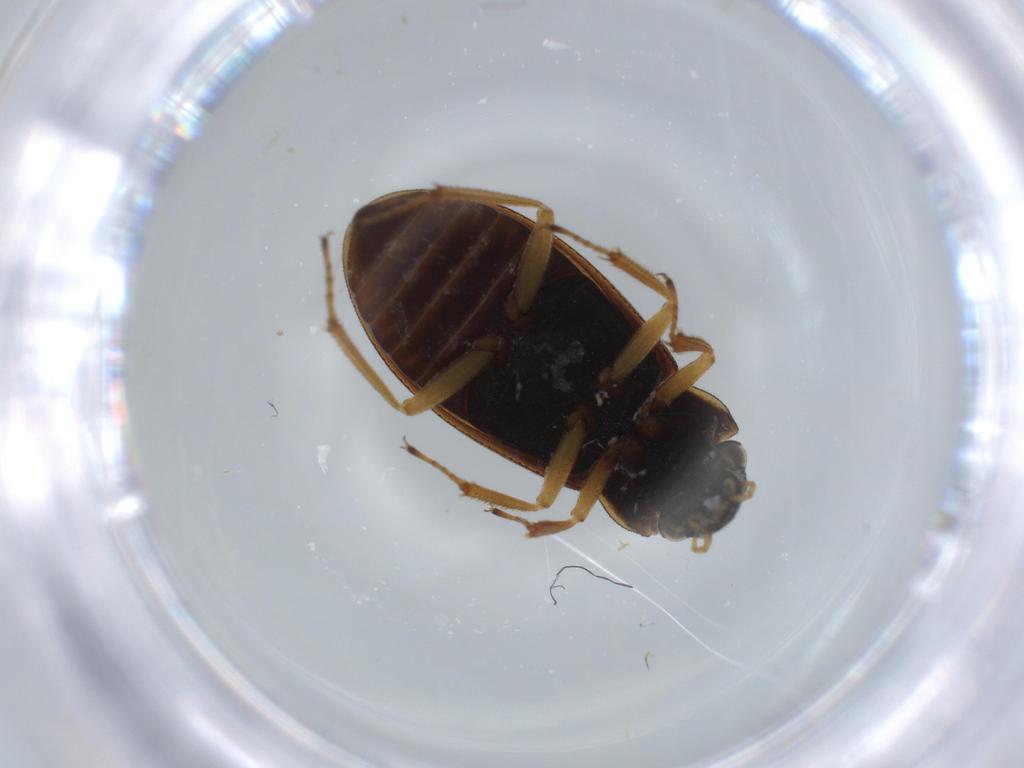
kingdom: Animalia
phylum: Arthropoda
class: Insecta
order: Coleoptera
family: Helophoridae
